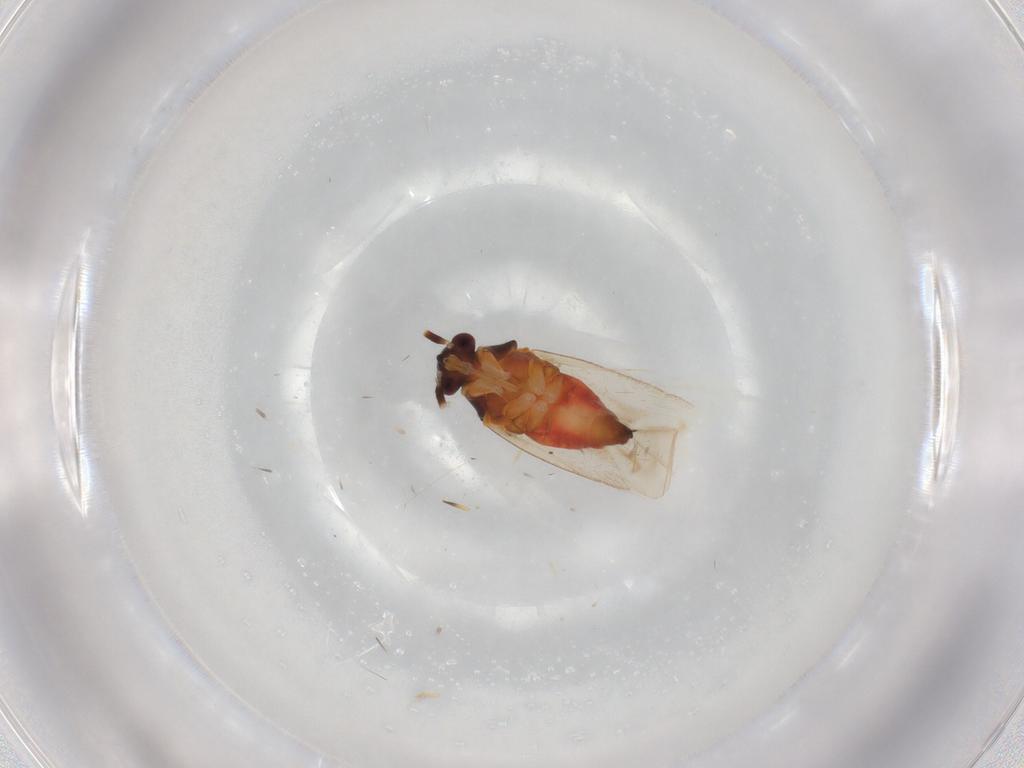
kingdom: Animalia
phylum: Arthropoda
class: Insecta
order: Hemiptera
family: Miridae
